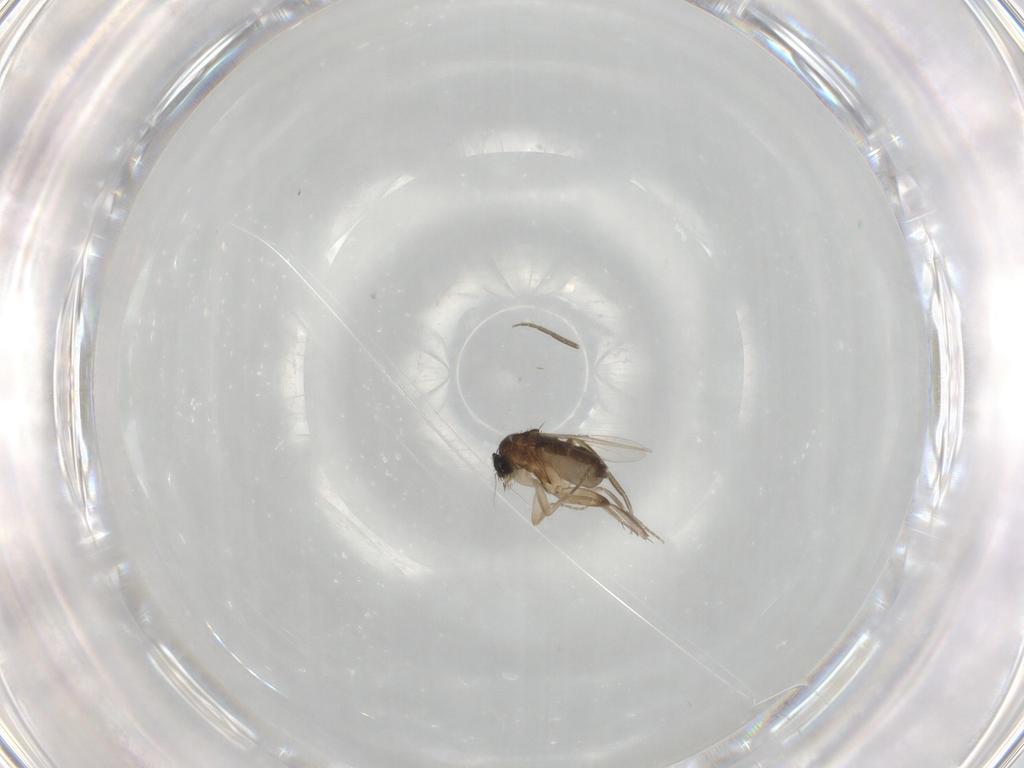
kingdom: Animalia
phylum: Arthropoda
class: Insecta
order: Diptera
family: Phoridae
